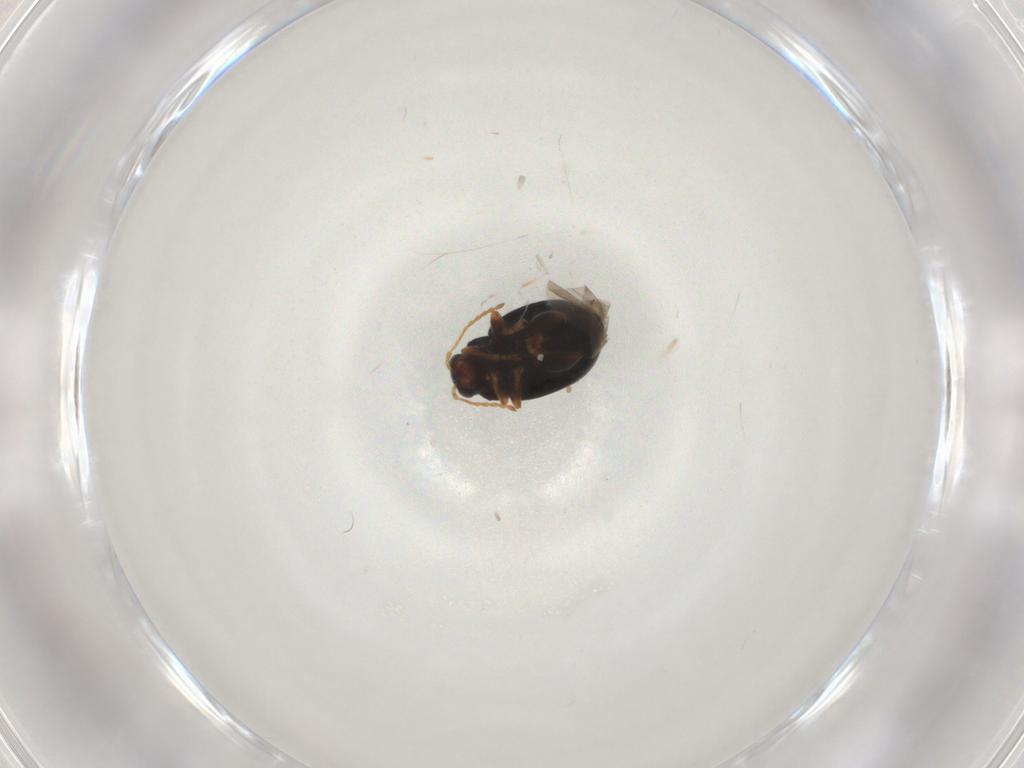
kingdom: Animalia
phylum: Arthropoda
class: Insecta
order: Coleoptera
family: Chrysomelidae
